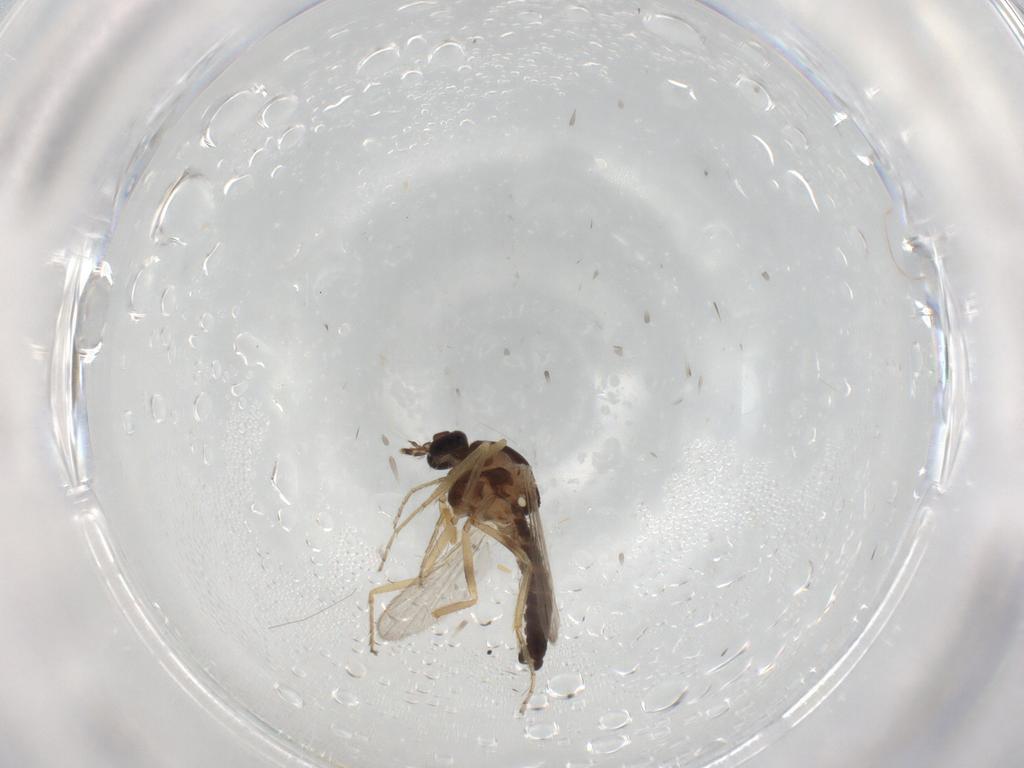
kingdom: Animalia
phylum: Arthropoda
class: Insecta
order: Diptera
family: Ceratopogonidae
